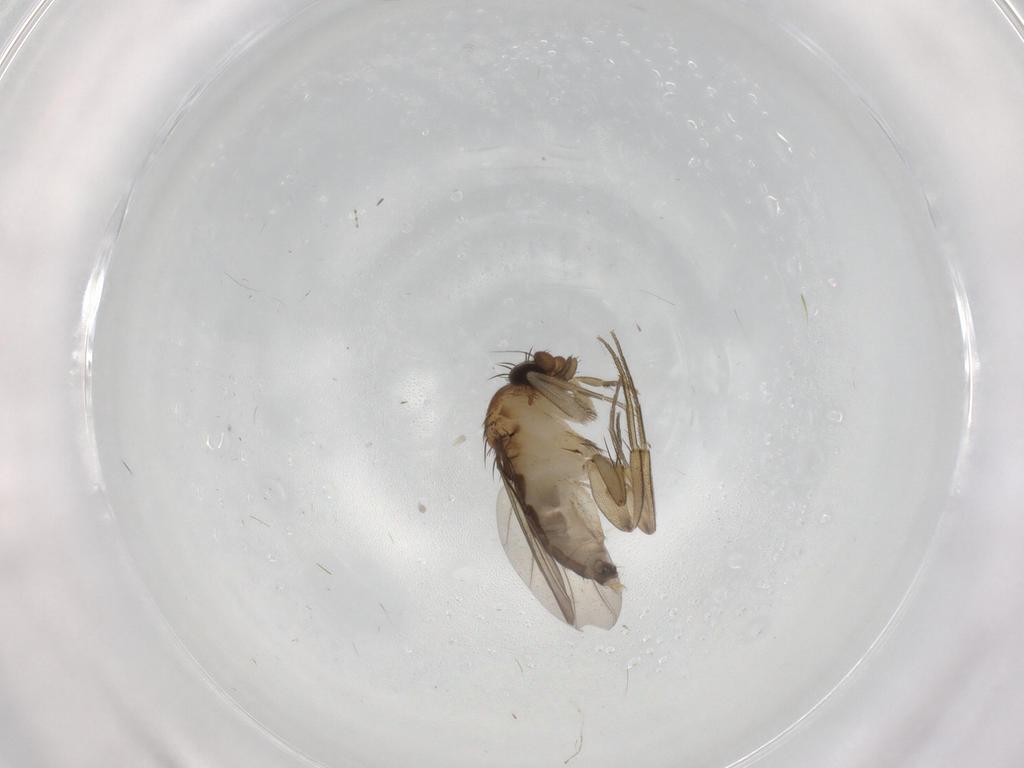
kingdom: Animalia
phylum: Arthropoda
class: Insecta
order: Diptera
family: Phoridae
